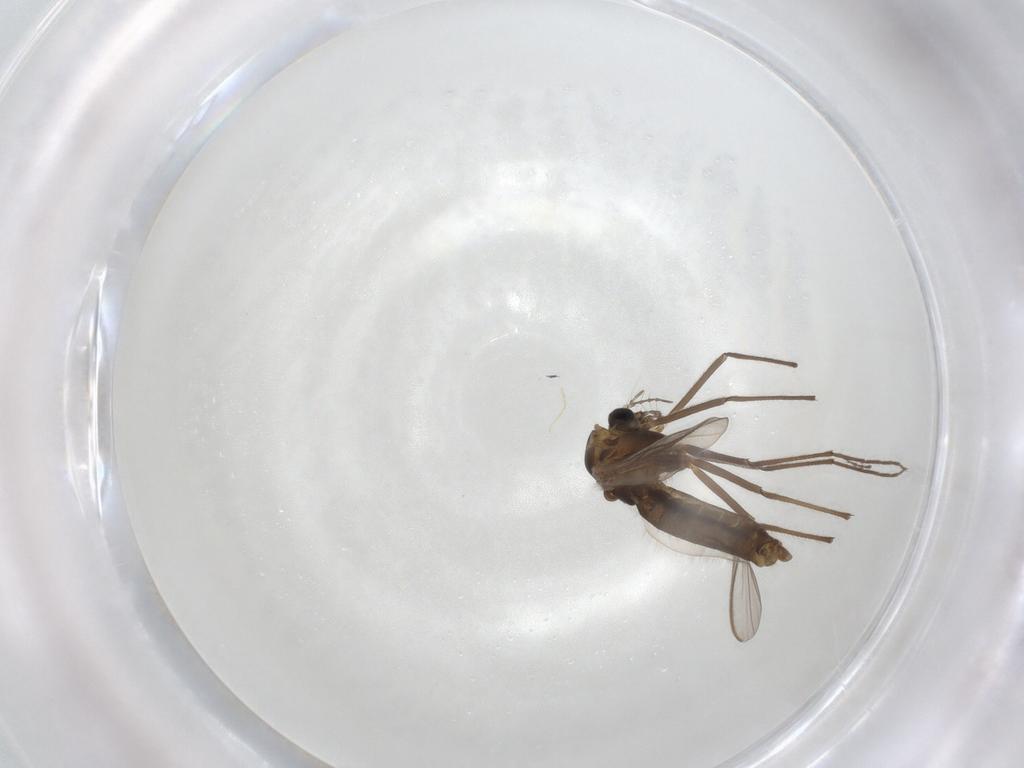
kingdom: Animalia
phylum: Arthropoda
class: Insecta
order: Diptera
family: Chironomidae
